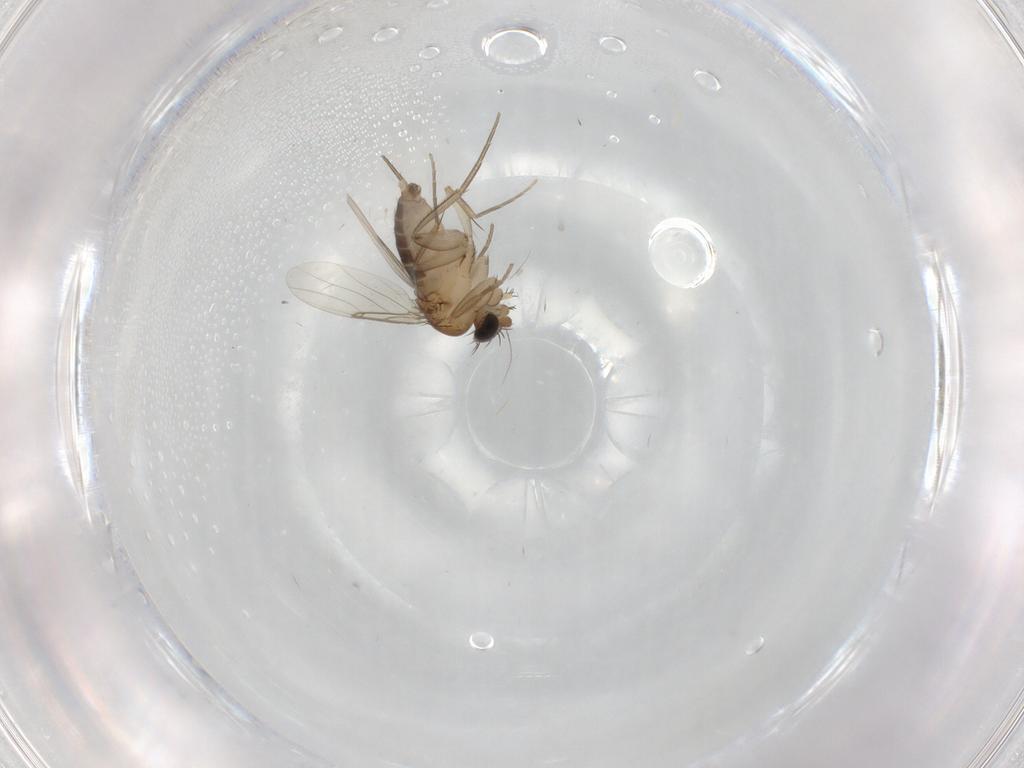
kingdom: Animalia
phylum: Arthropoda
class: Insecta
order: Diptera
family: Phoridae
